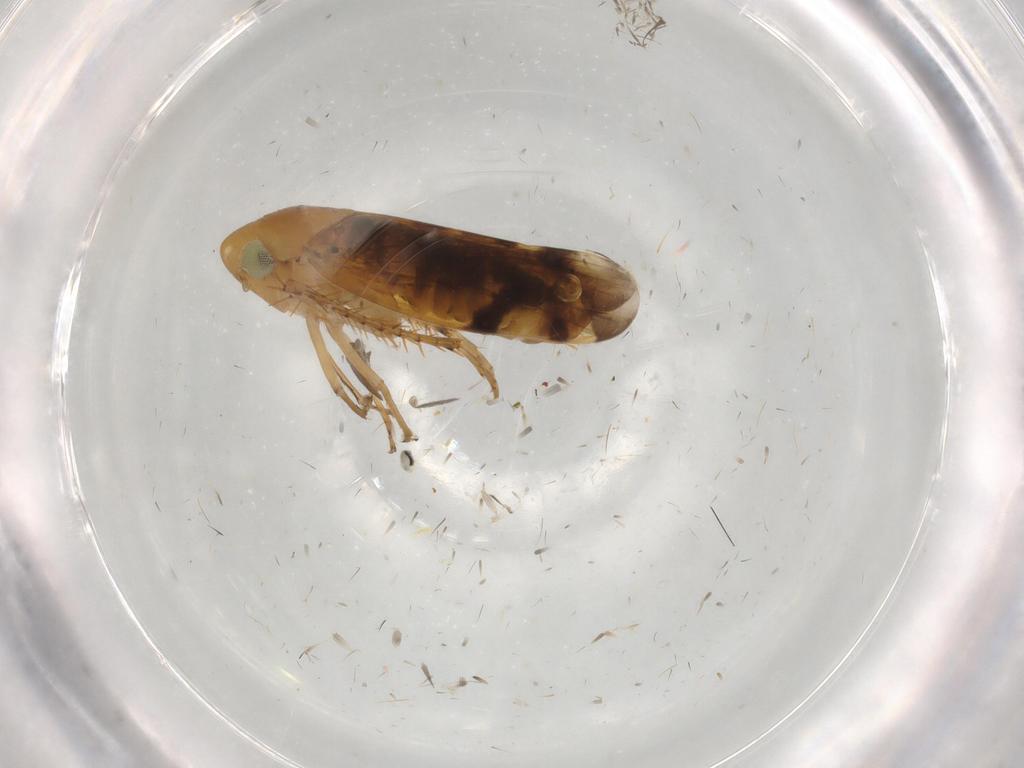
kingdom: Animalia
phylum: Arthropoda
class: Insecta
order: Hemiptera
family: Cicadellidae
